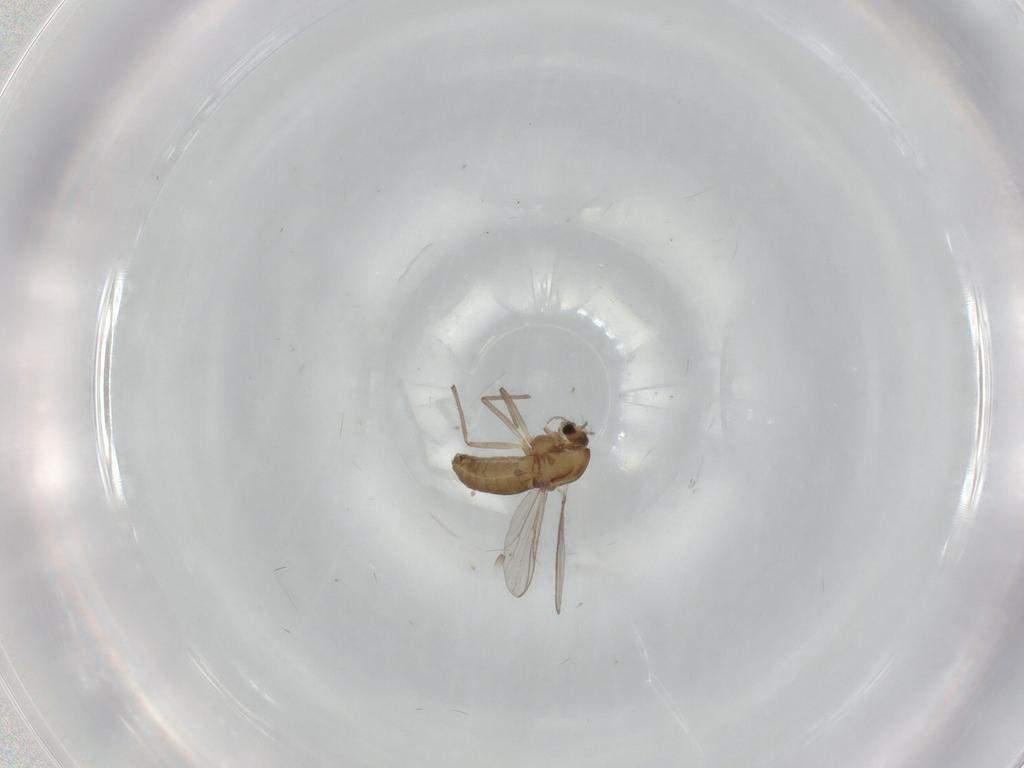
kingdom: Animalia
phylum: Arthropoda
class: Insecta
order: Diptera
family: Chironomidae
